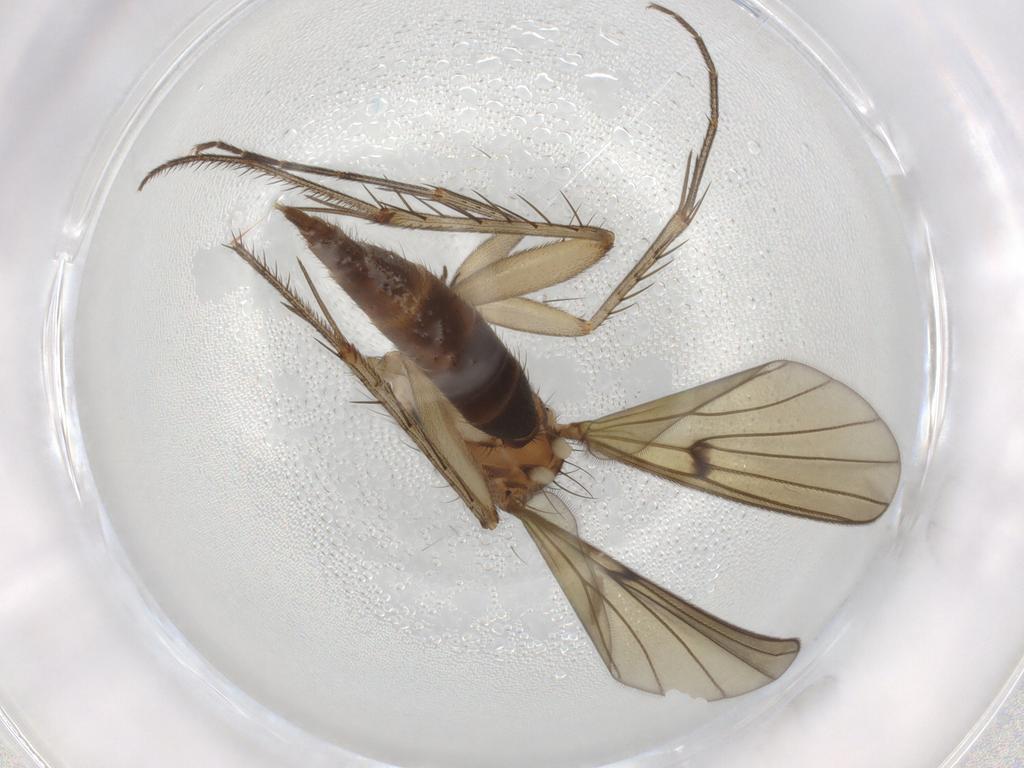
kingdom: Animalia
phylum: Arthropoda
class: Insecta
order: Diptera
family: Mycetophilidae
